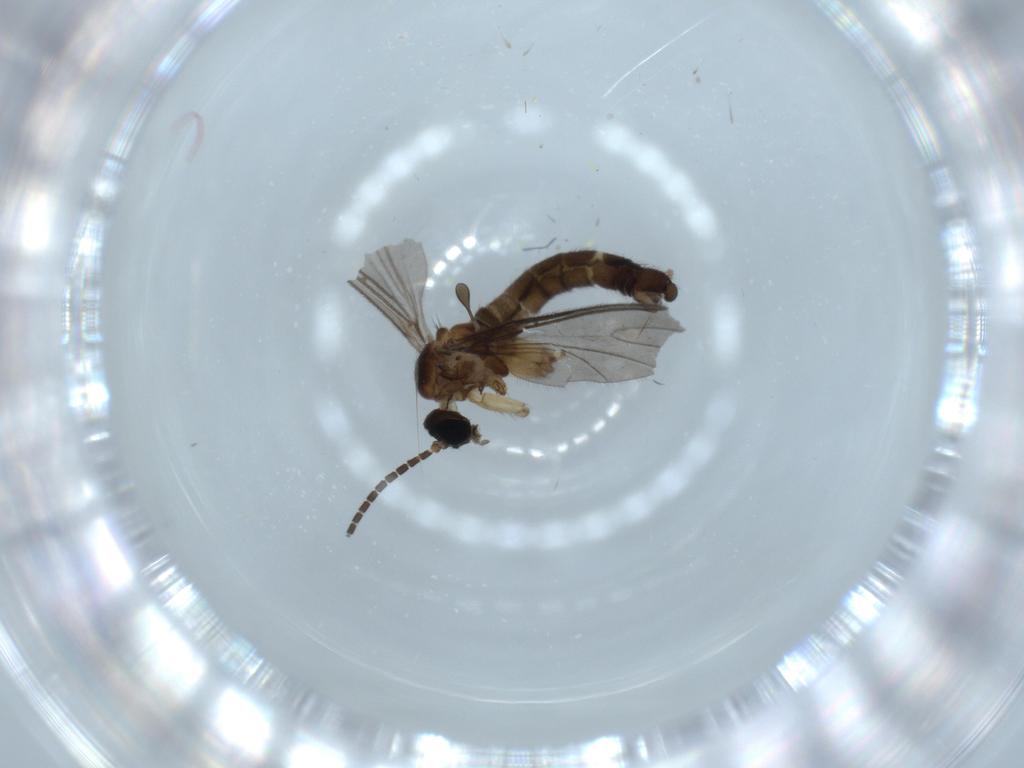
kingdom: Animalia
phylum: Arthropoda
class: Insecta
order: Diptera
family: Sciaridae
